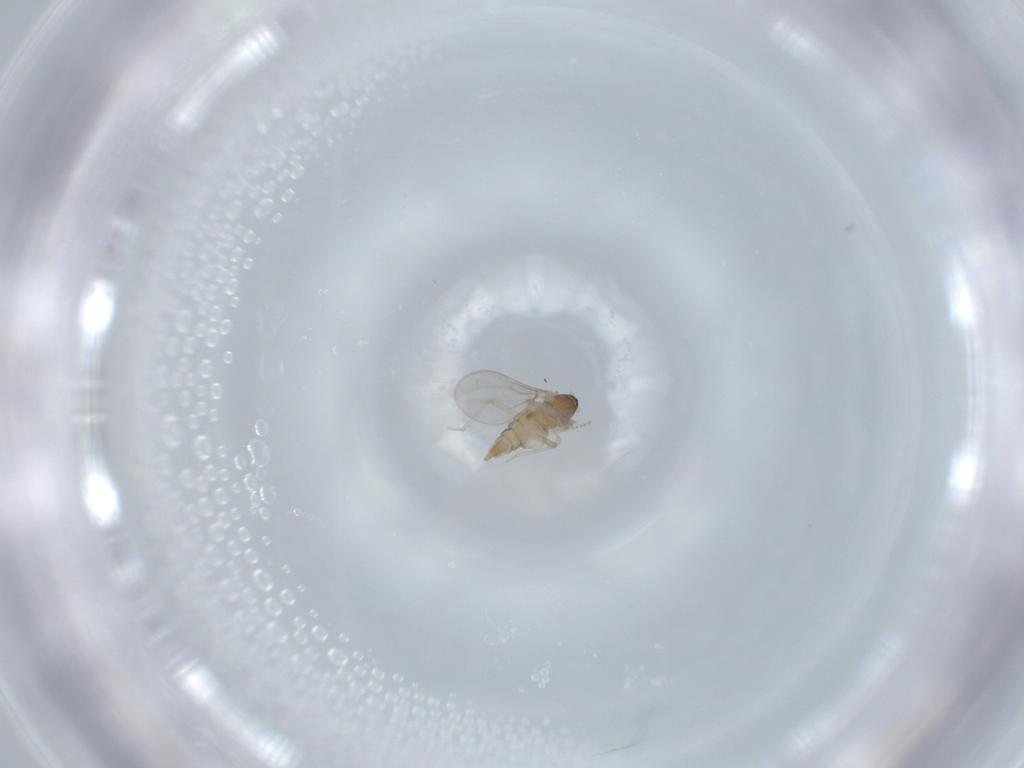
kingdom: Animalia
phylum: Arthropoda
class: Insecta
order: Diptera
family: Cecidomyiidae
